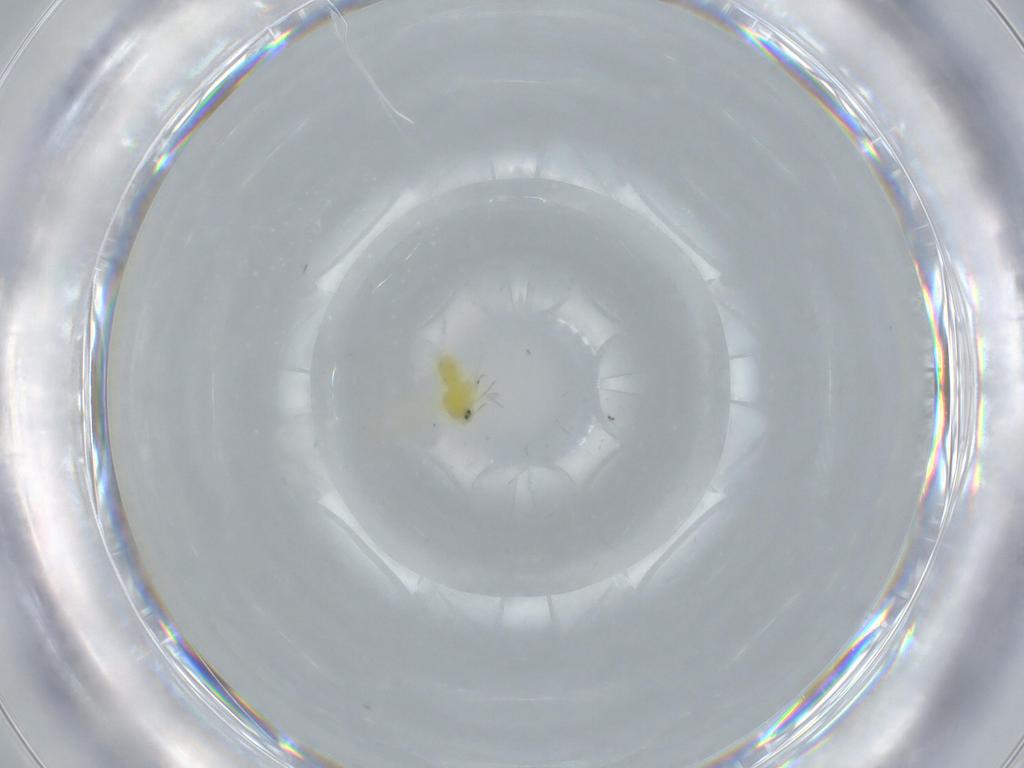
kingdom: Animalia
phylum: Arthropoda
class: Insecta
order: Hemiptera
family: Aleyrodidae
